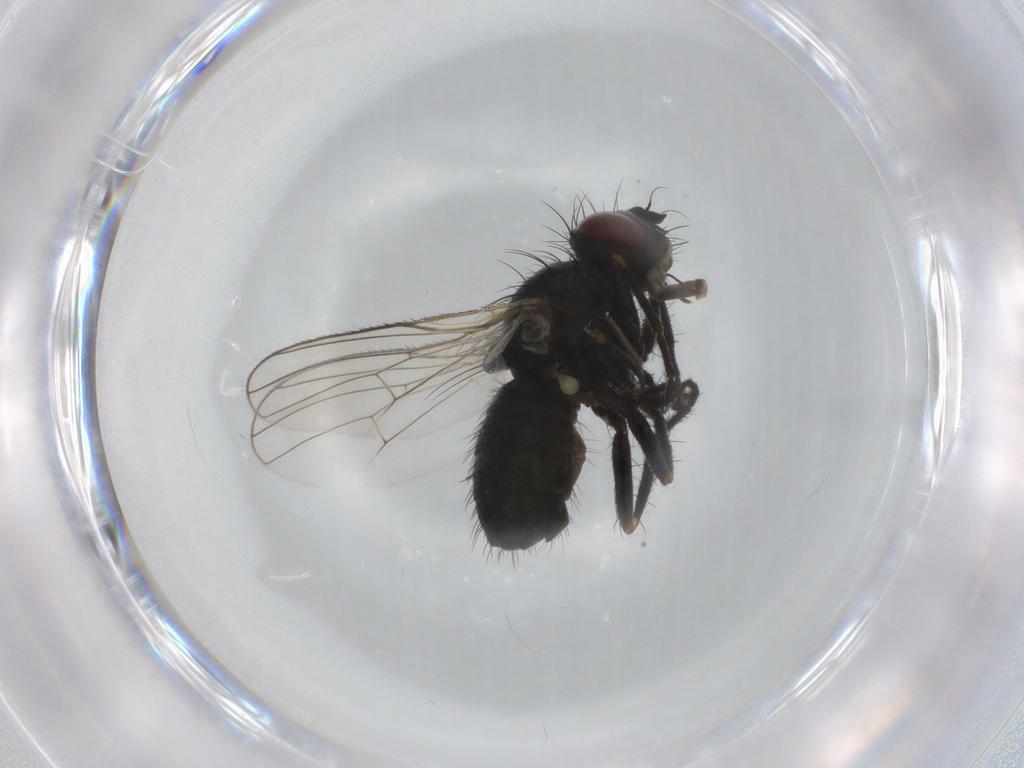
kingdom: Animalia
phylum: Arthropoda
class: Insecta
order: Diptera
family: Muscidae
